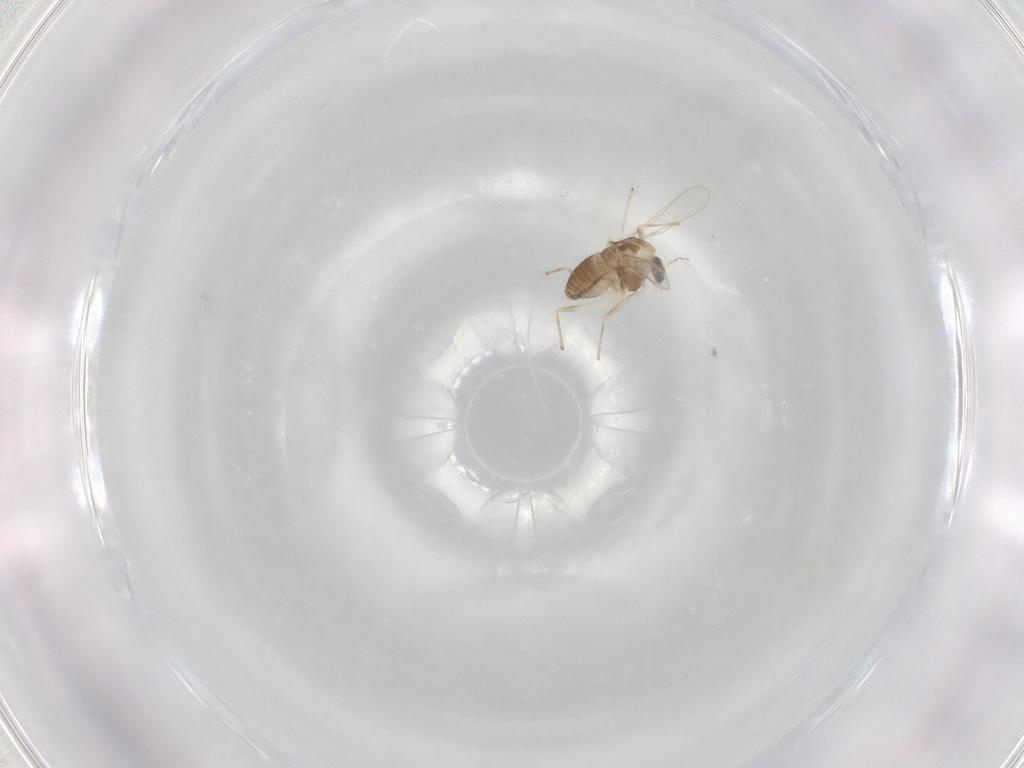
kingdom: Animalia
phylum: Arthropoda
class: Insecta
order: Diptera
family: Chironomidae
